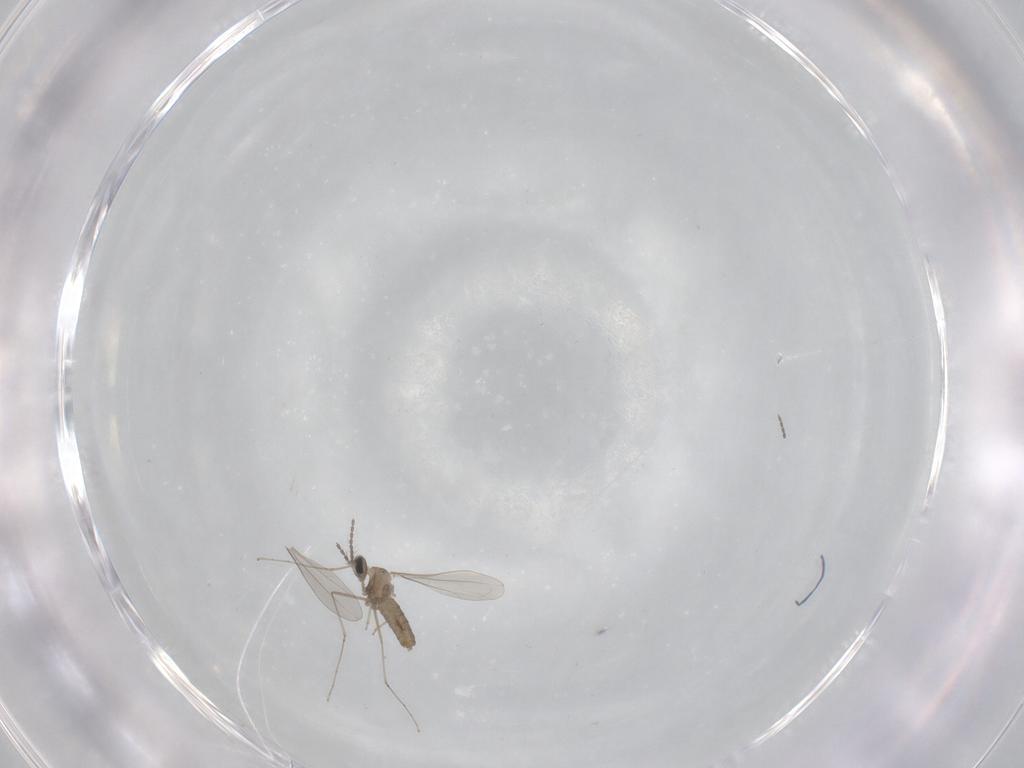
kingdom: Animalia
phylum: Arthropoda
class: Insecta
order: Diptera
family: Cecidomyiidae
